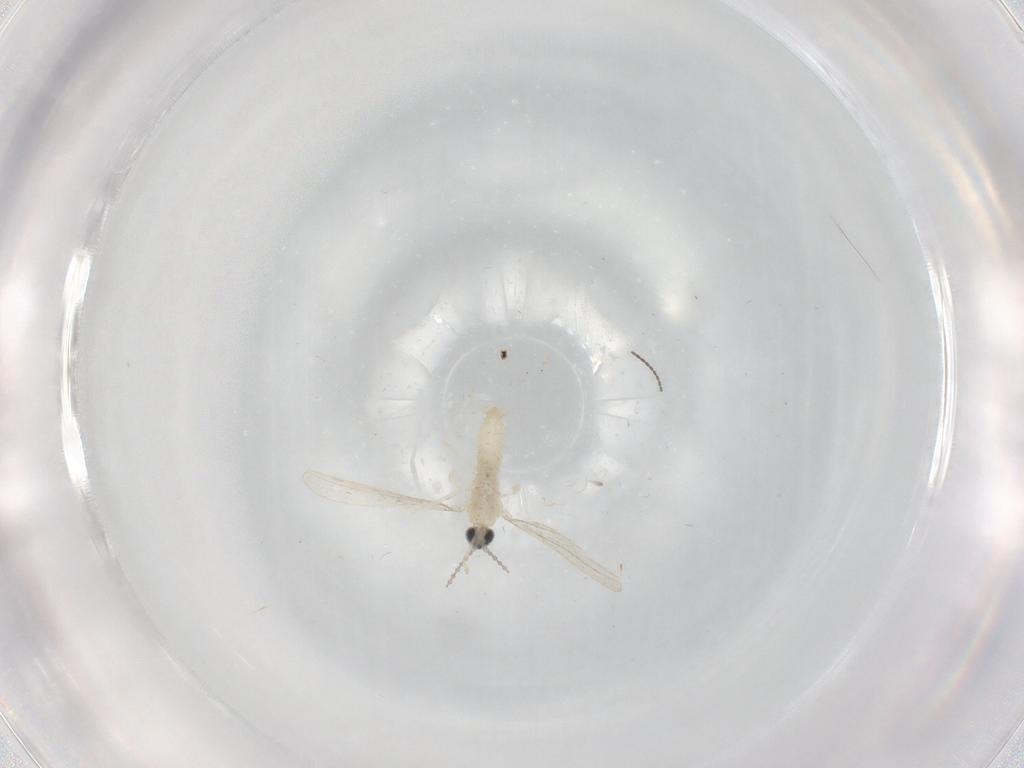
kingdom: Animalia
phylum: Arthropoda
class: Insecta
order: Diptera
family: Cecidomyiidae
